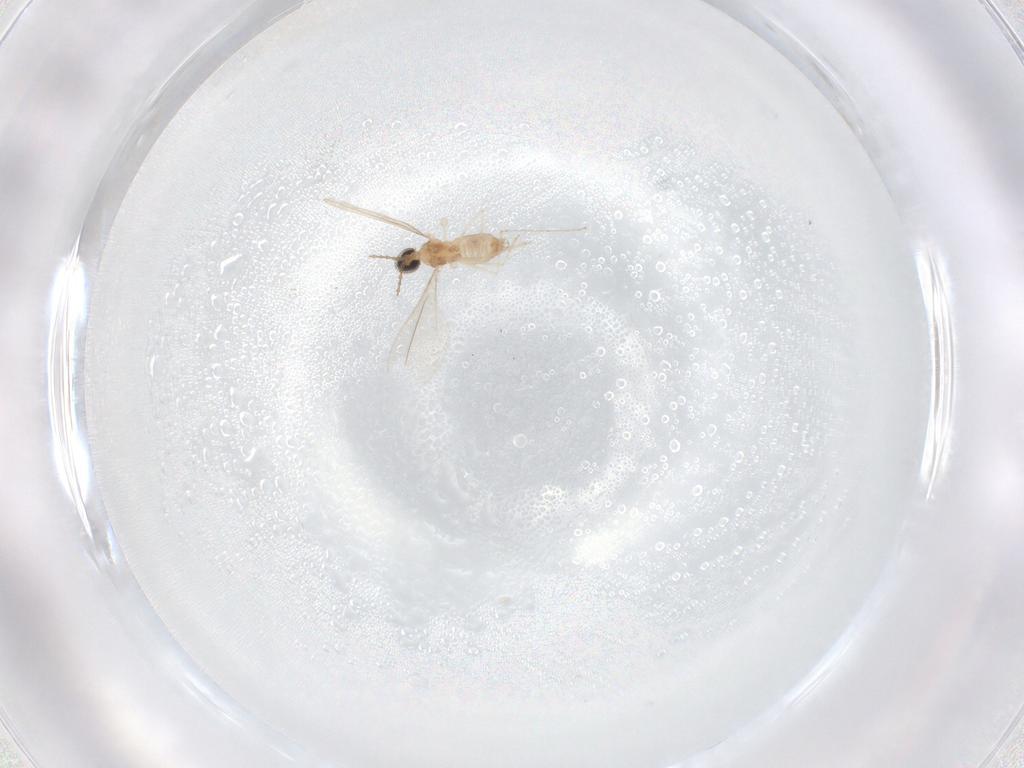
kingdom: Animalia
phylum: Arthropoda
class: Insecta
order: Diptera
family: Cecidomyiidae
